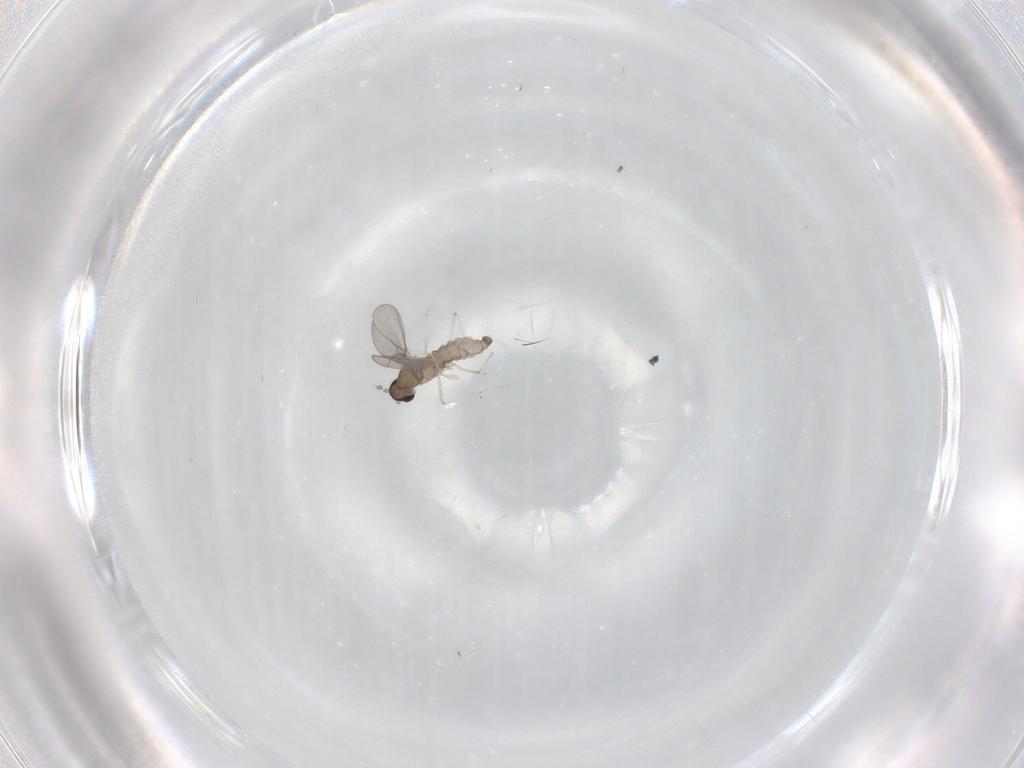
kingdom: Animalia
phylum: Arthropoda
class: Insecta
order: Diptera
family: Cecidomyiidae
